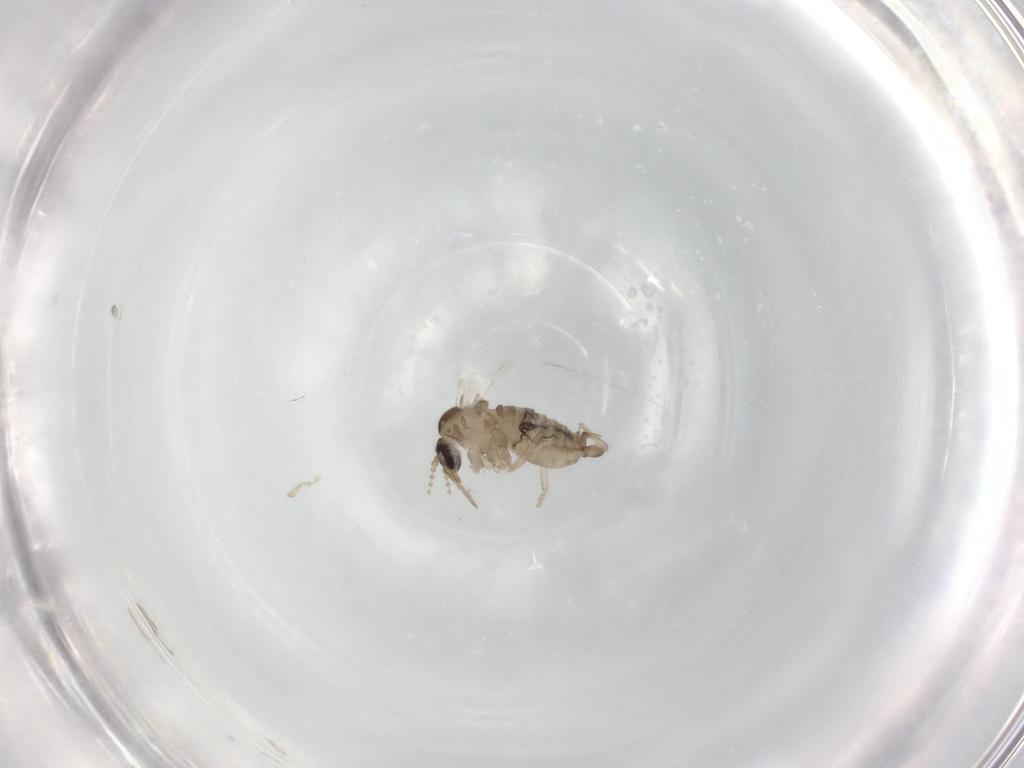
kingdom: Animalia
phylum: Arthropoda
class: Insecta
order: Diptera
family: Psychodidae
